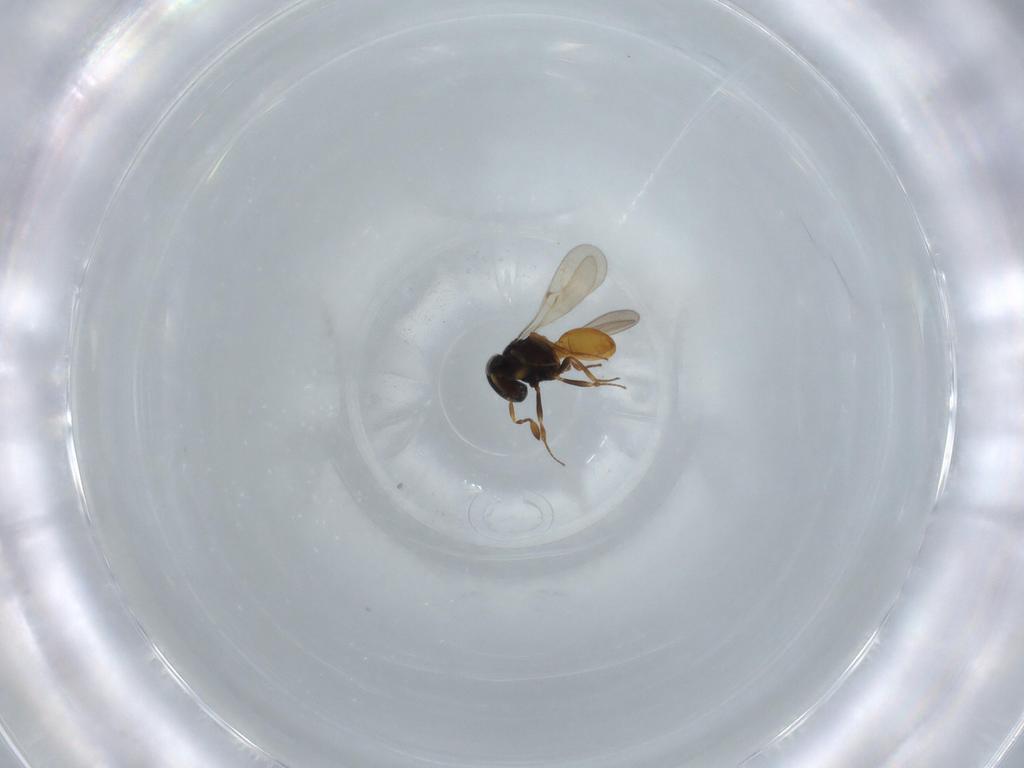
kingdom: Animalia
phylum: Arthropoda
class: Insecta
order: Hymenoptera
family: Scelionidae
